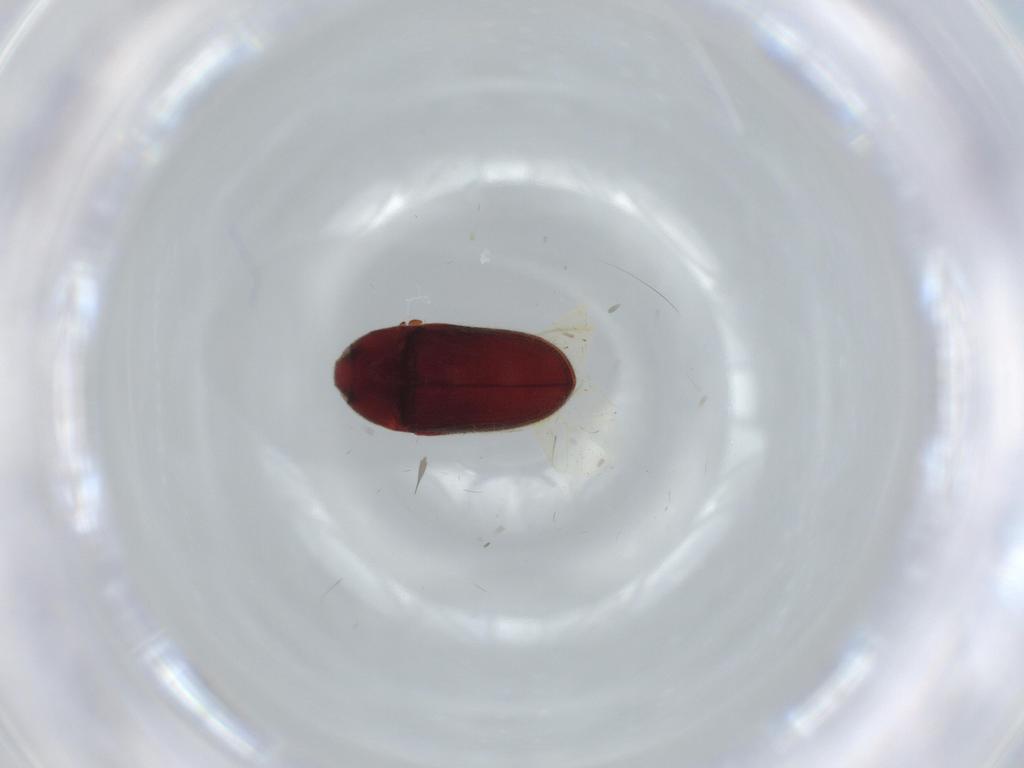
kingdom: Animalia
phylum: Arthropoda
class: Insecta
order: Coleoptera
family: Throscidae
